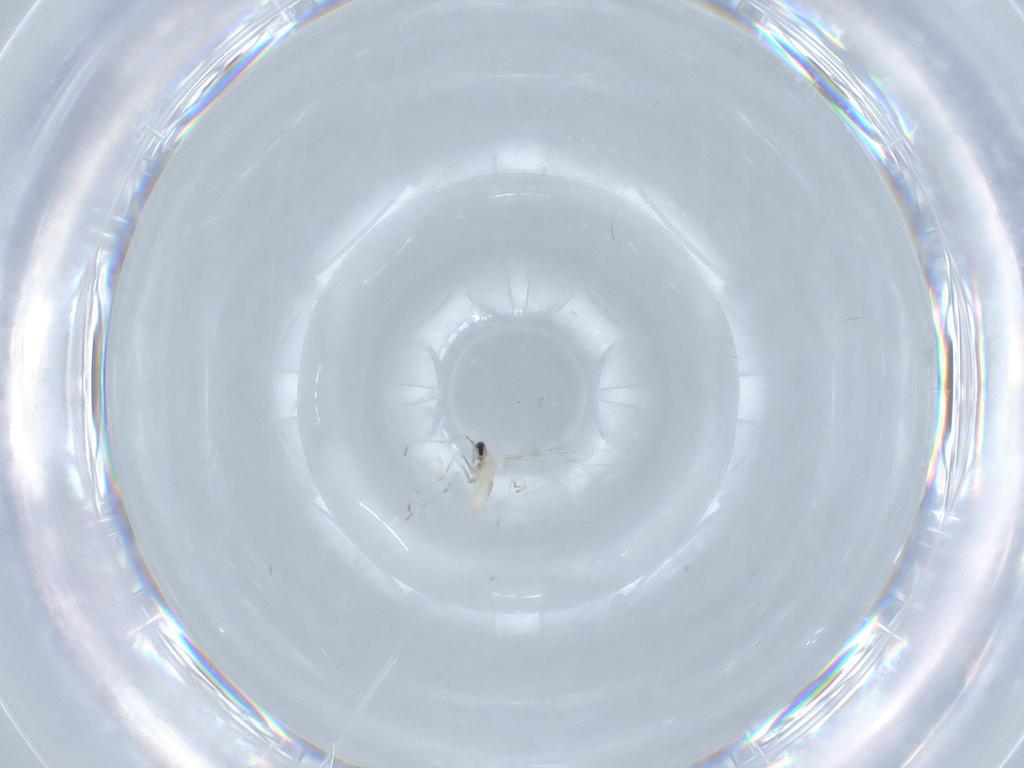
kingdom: Animalia
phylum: Arthropoda
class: Insecta
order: Diptera
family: Cecidomyiidae
